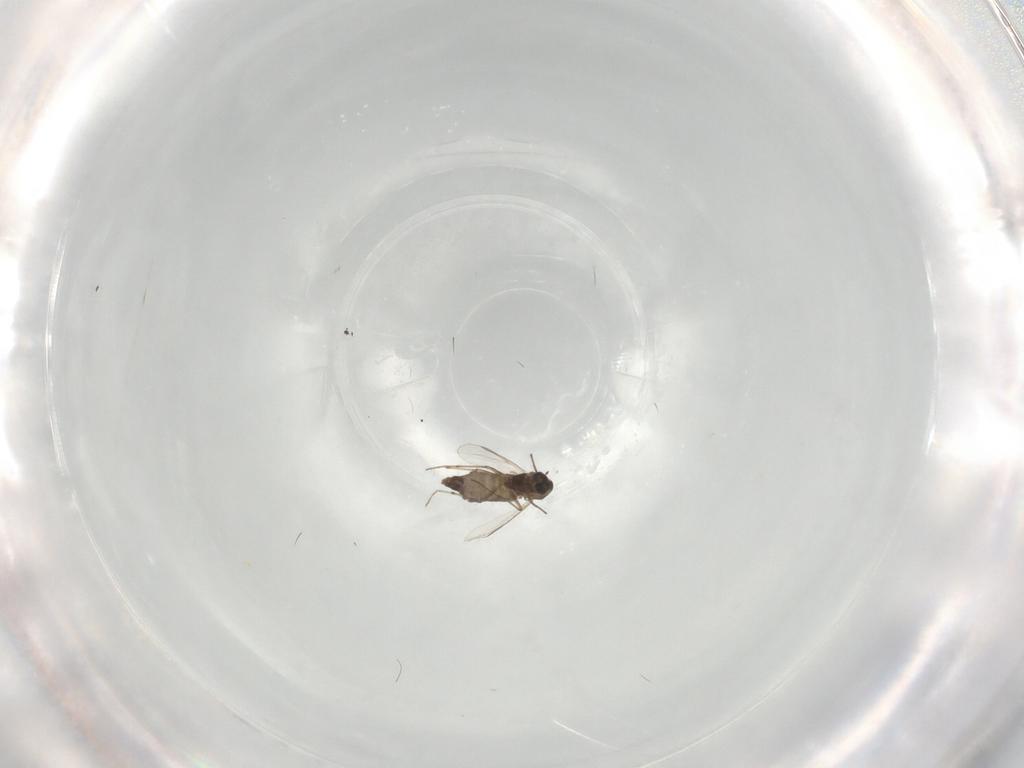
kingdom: Animalia
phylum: Arthropoda
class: Insecta
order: Diptera
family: Chironomidae
